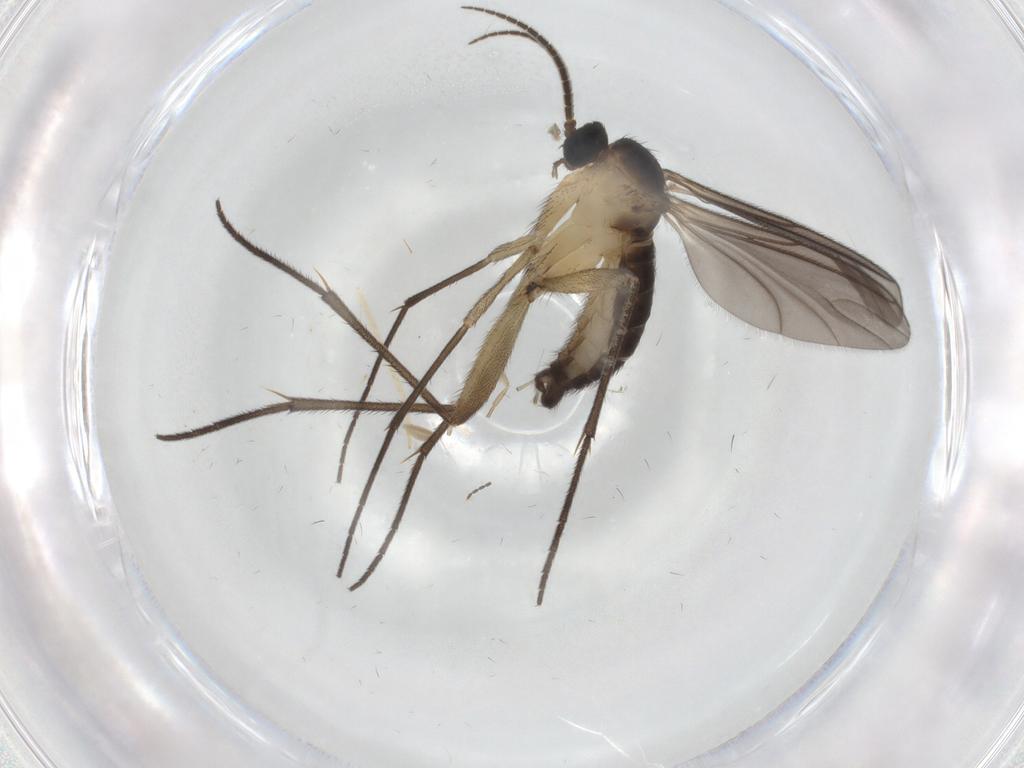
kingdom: Animalia
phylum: Arthropoda
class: Insecta
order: Diptera
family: Sciaridae
